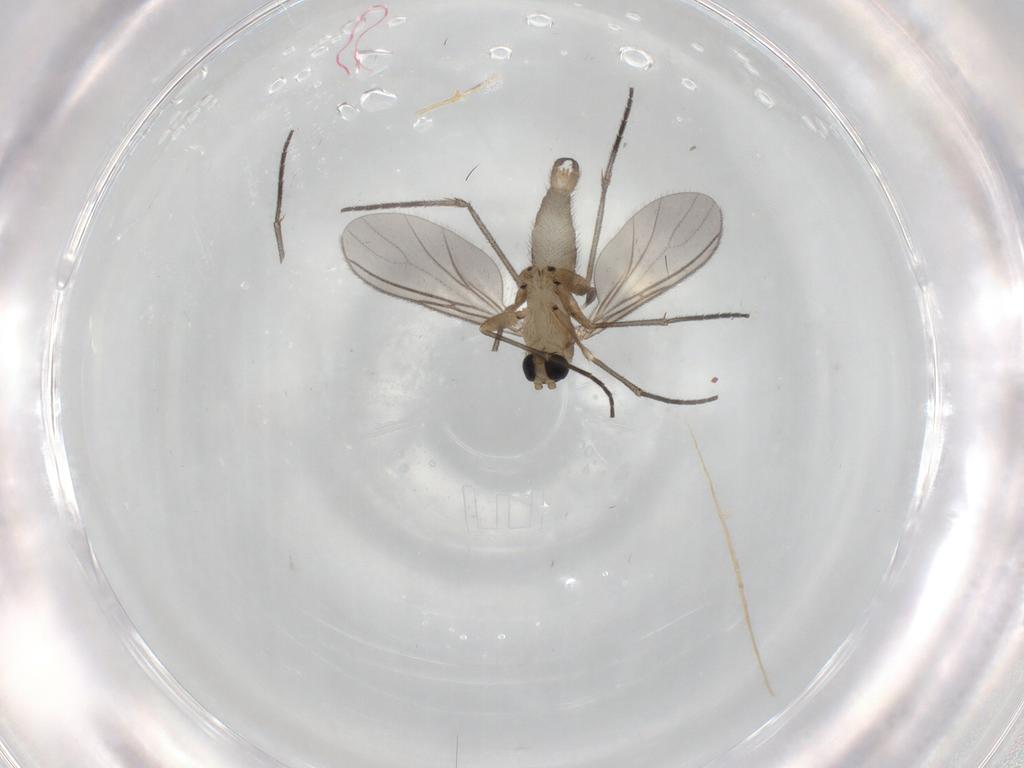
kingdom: Animalia
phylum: Arthropoda
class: Insecta
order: Diptera
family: Sciaridae
